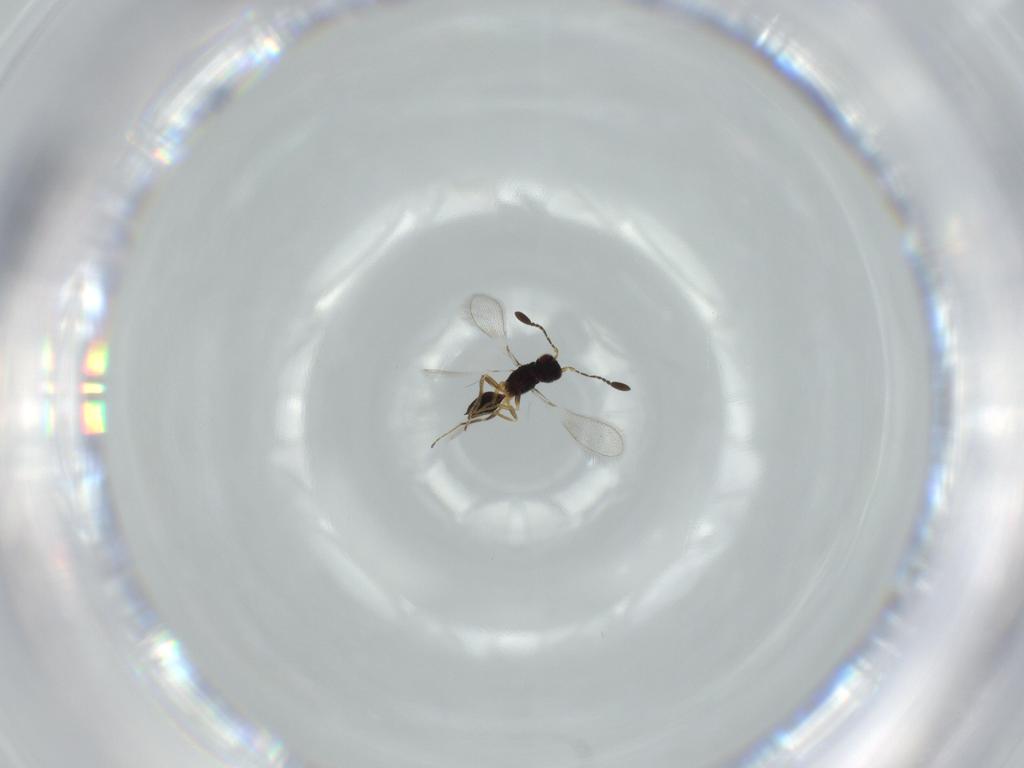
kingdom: Animalia
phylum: Arthropoda
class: Insecta
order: Hymenoptera
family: Mymaridae
